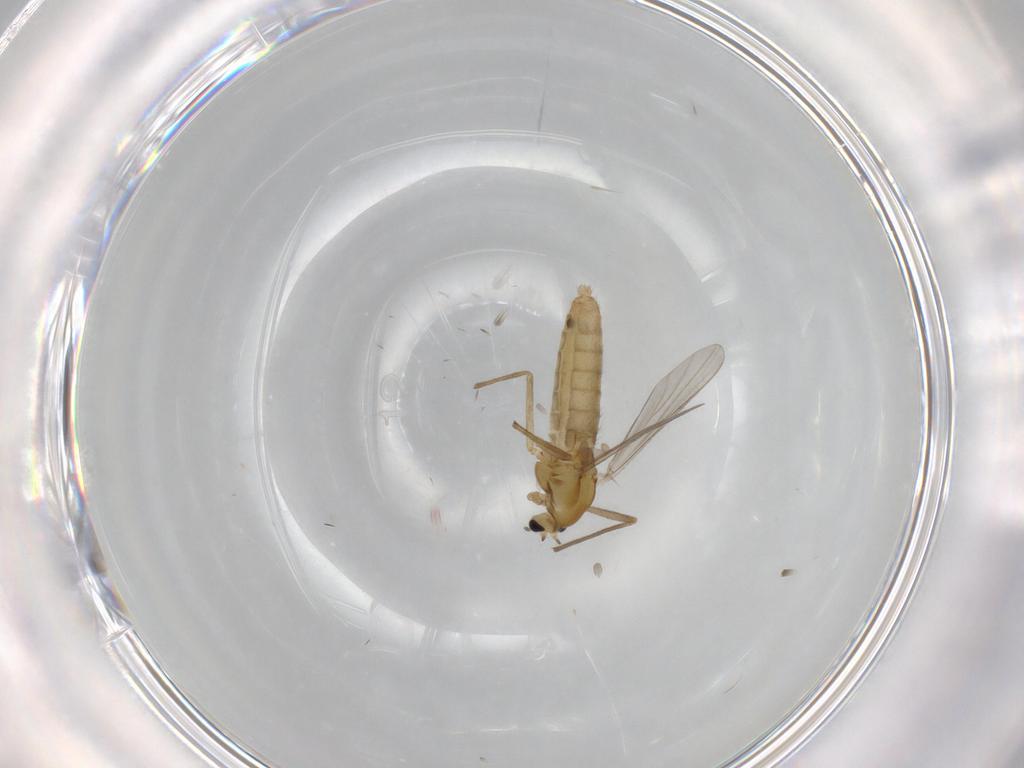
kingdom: Animalia
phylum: Arthropoda
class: Insecta
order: Diptera
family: Chironomidae
